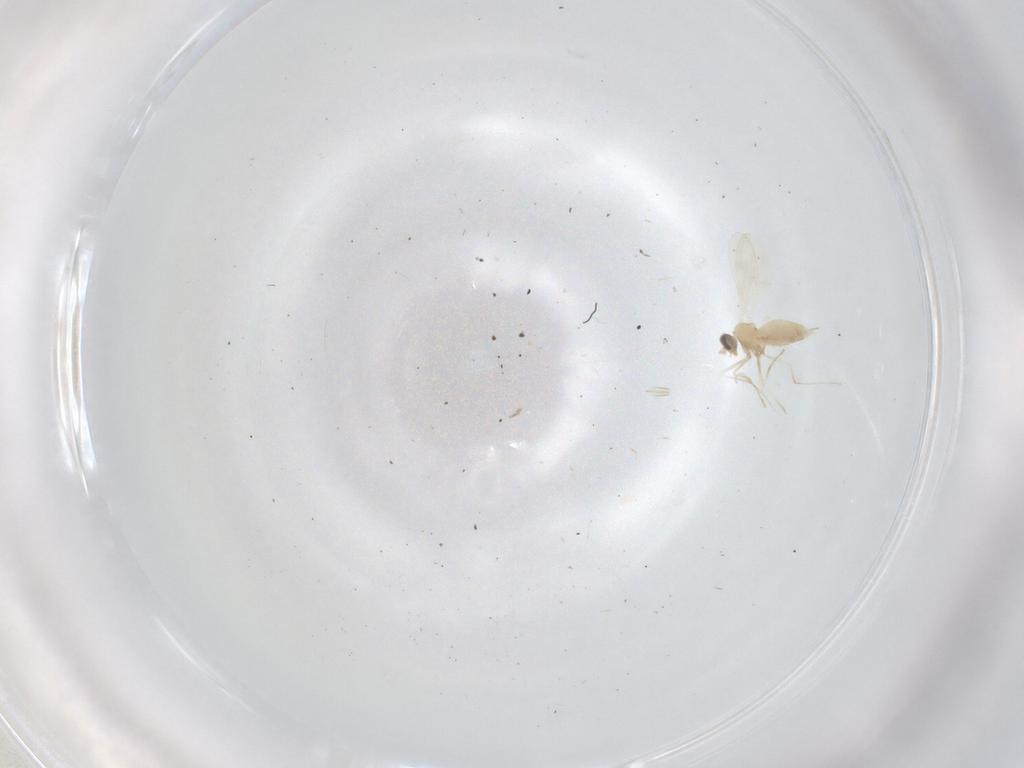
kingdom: Animalia
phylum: Arthropoda
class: Insecta
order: Diptera
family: Cecidomyiidae
